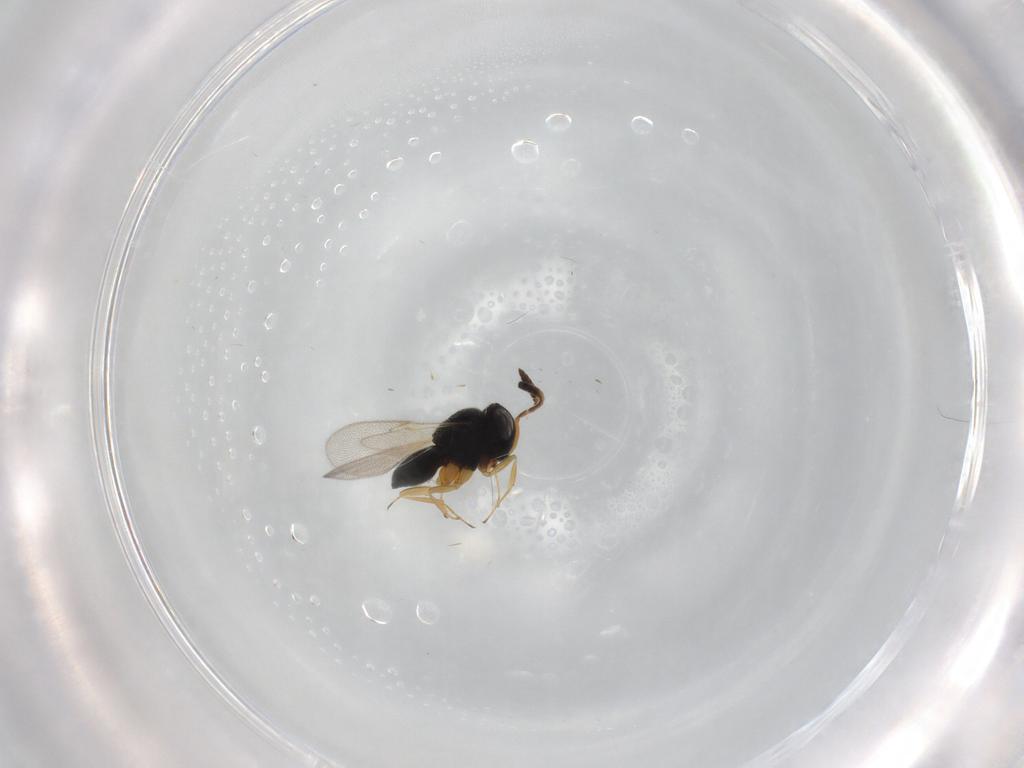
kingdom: Animalia
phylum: Arthropoda
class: Insecta
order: Hymenoptera
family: Scelionidae
